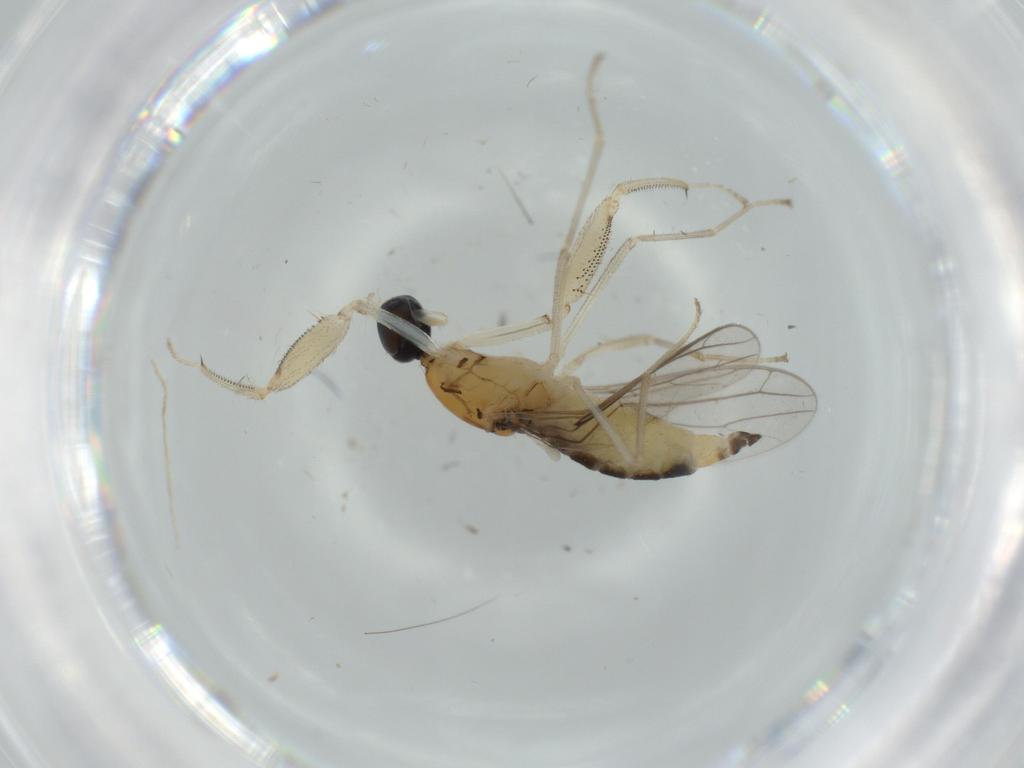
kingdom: Animalia
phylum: Arthropoda
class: Insecta
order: Diptera
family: Empididae
